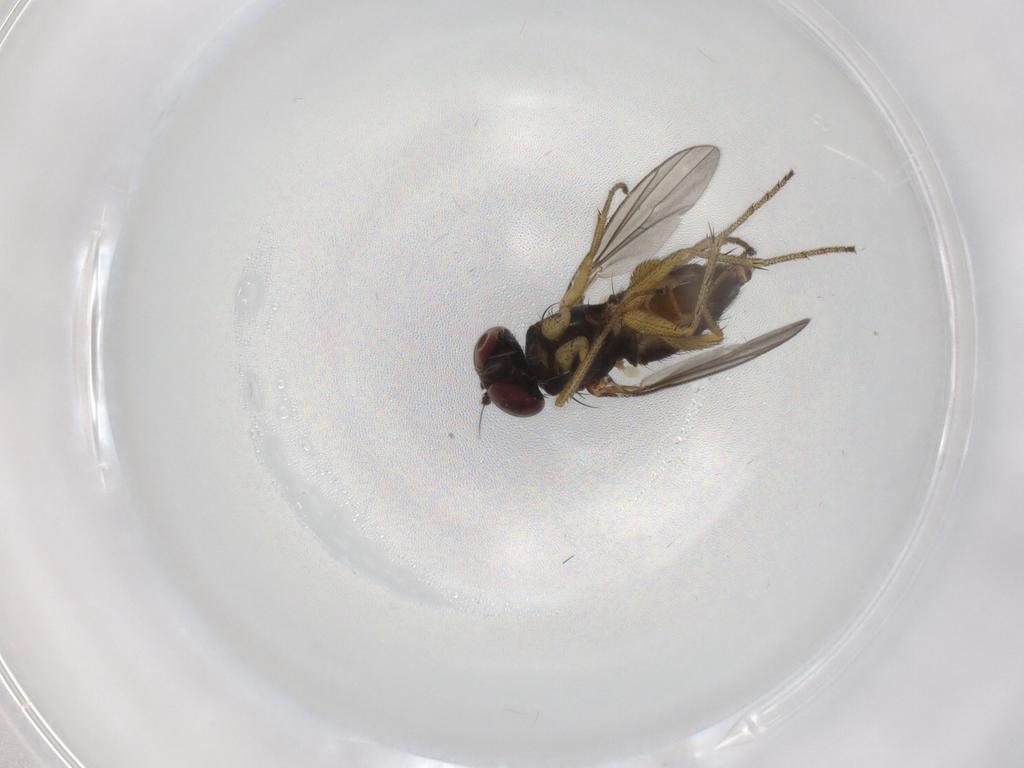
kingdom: Animalia
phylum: Arthropoda
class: Insecta
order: Diptera
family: Dolichopodidae
